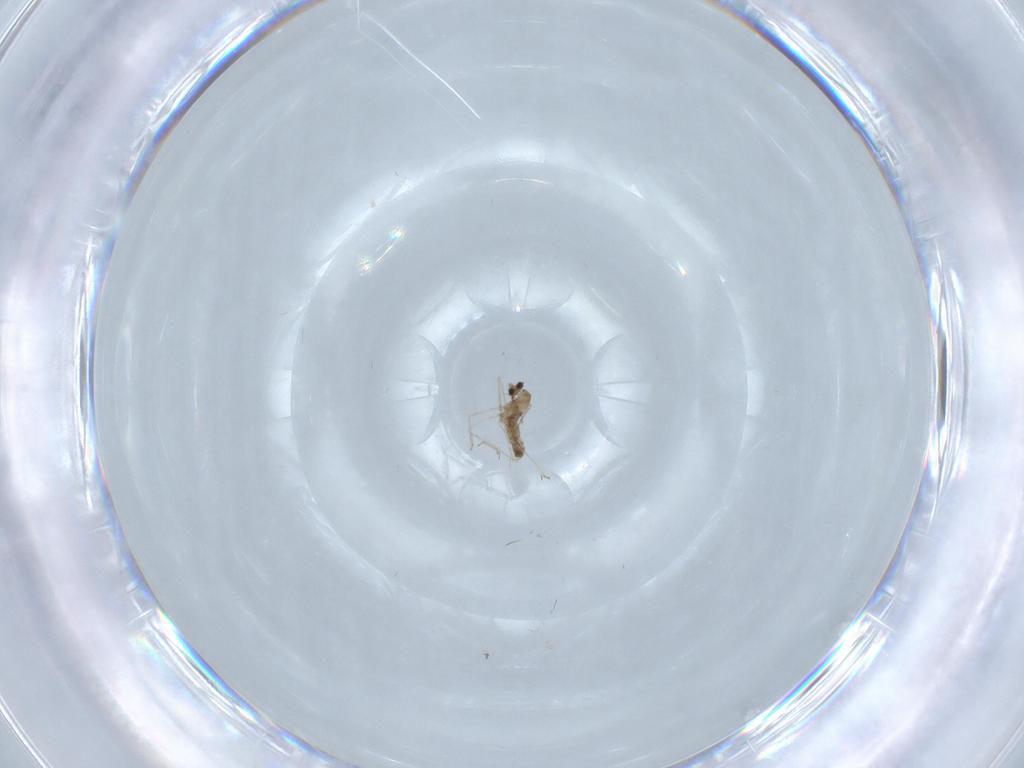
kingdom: Animalia
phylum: Arthropoda
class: Insecta
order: Diptera
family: Cecidomyiidae
